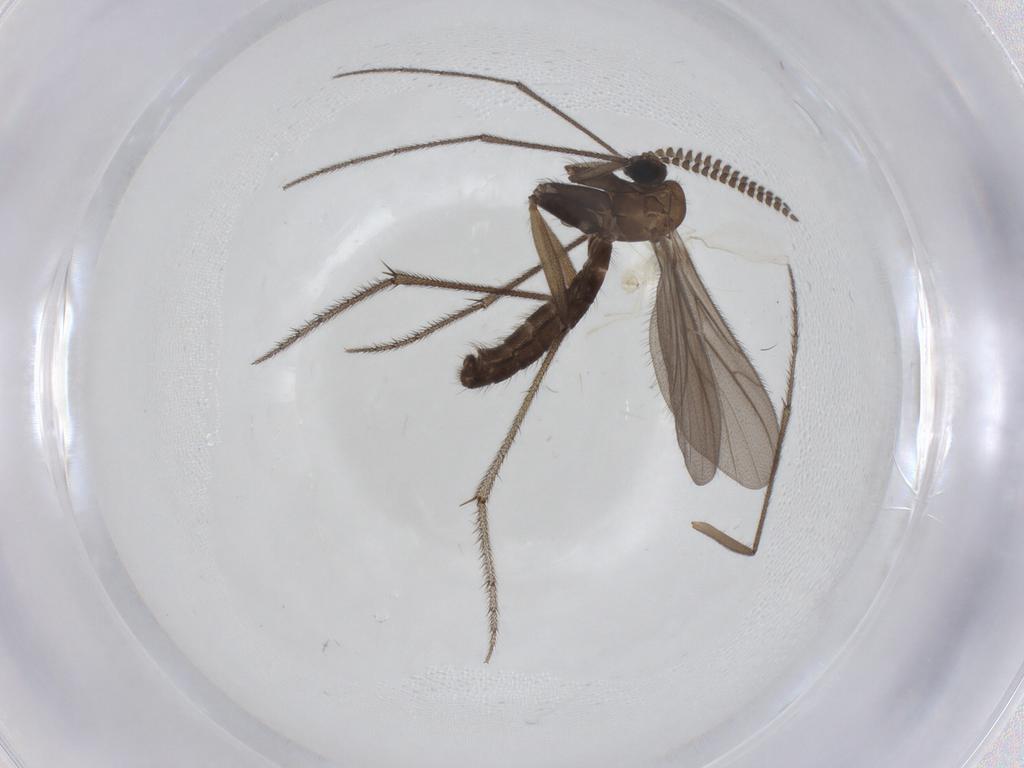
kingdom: Animalia
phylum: Arthropoda
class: Insecta
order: Diptera
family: Ditomyiidae
